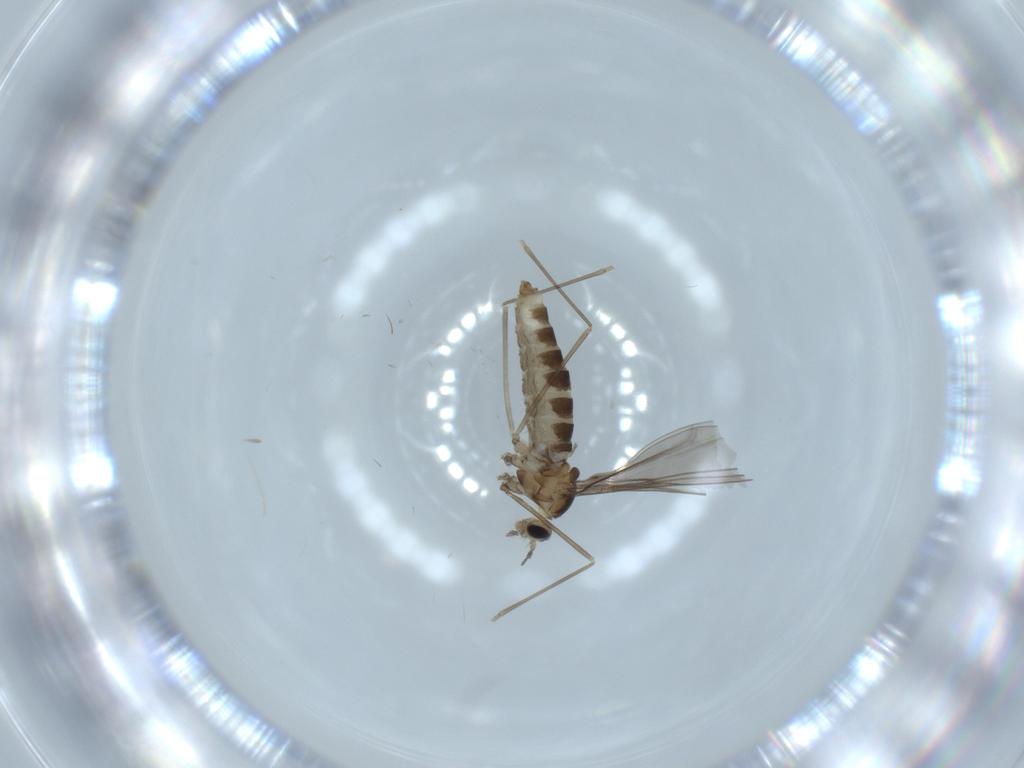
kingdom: Animalia
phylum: Arthropoda
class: Insecta
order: Diptera
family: Cecidomyiidae
